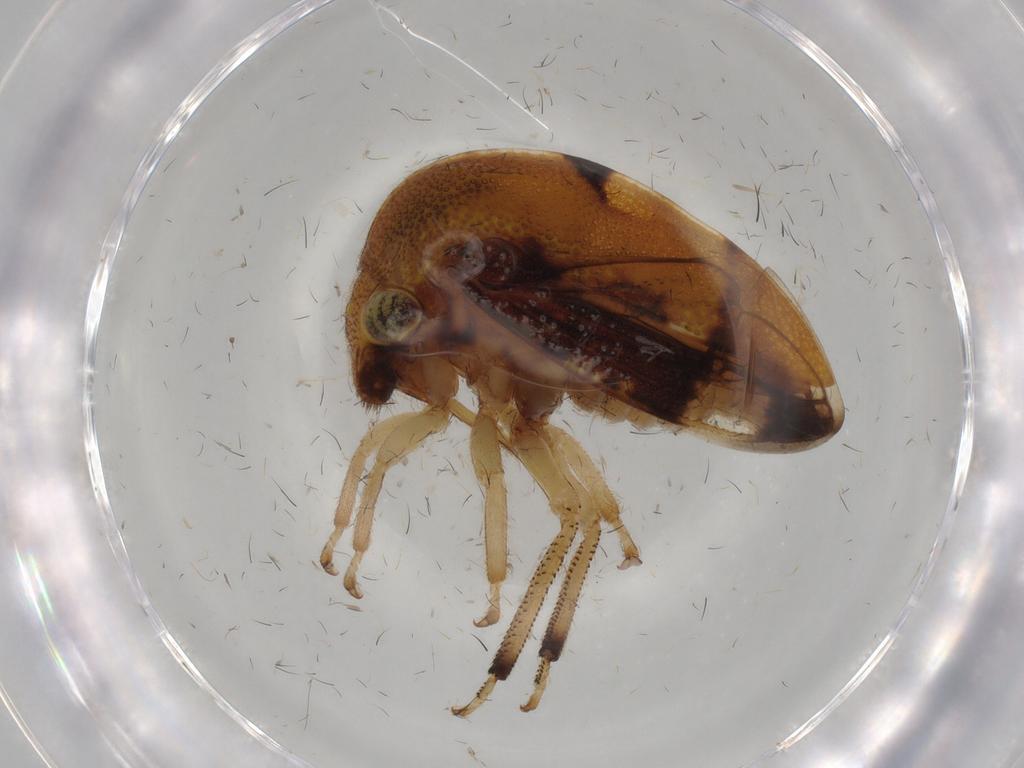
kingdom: Animalia
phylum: Arthropoda
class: Insecta
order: Hemiptera
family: Membracidae
